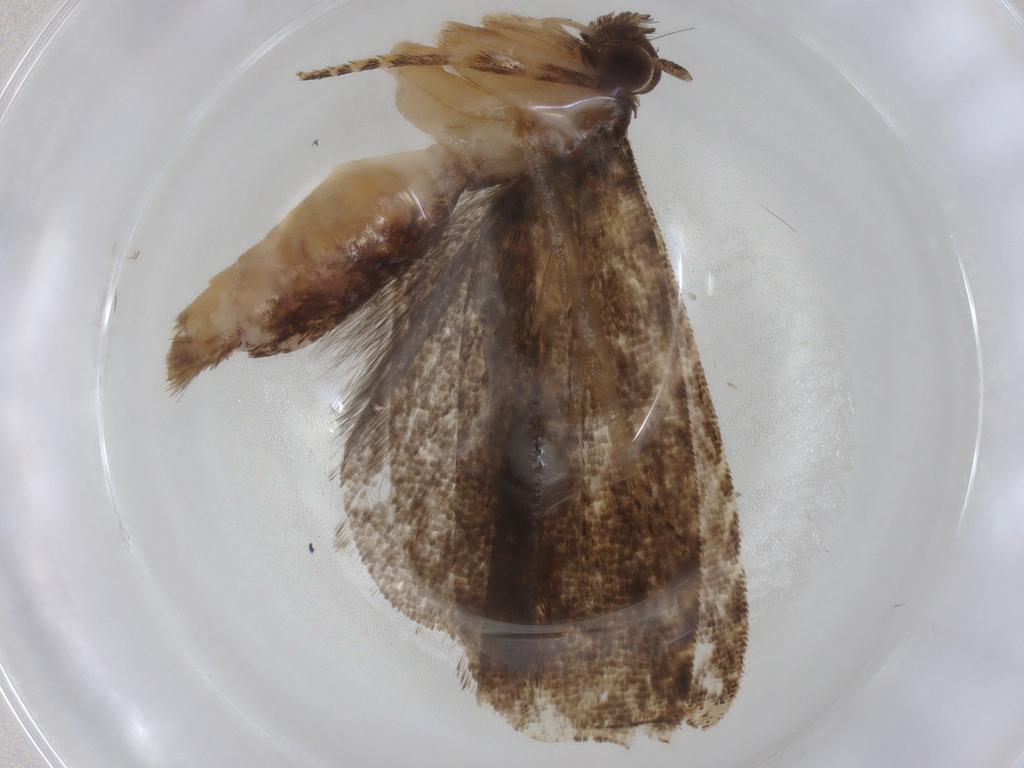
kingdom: Animalia
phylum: Arthropoda
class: Insecta
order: Lepidoptera
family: Tortricidae
